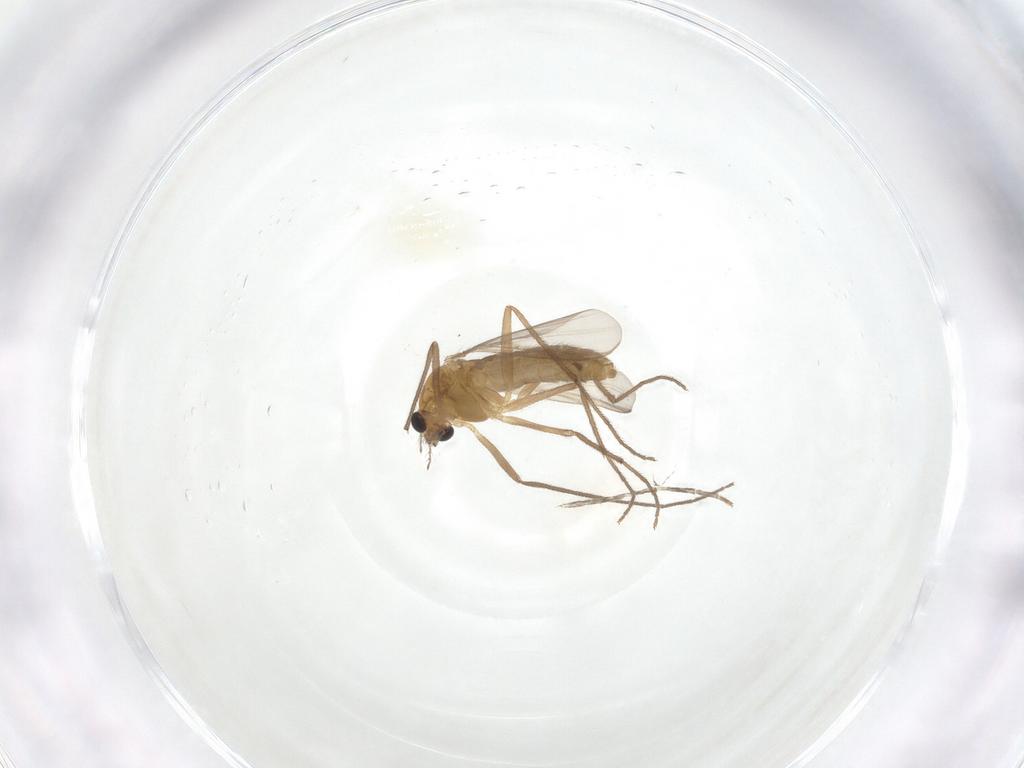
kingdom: Animalia
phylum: Arthropoda
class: Insecta
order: Diptera
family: Chironomidae
